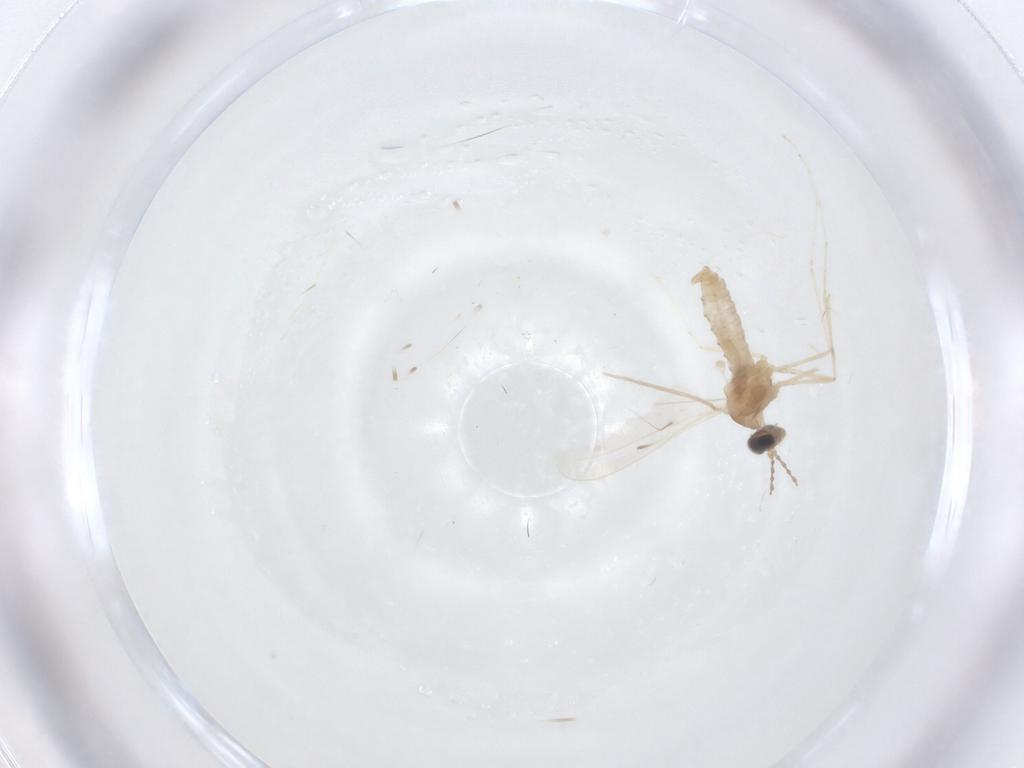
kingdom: Animalia
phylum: Arthropoda
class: Insecta
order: Diptera
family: Cecidomyiidae
